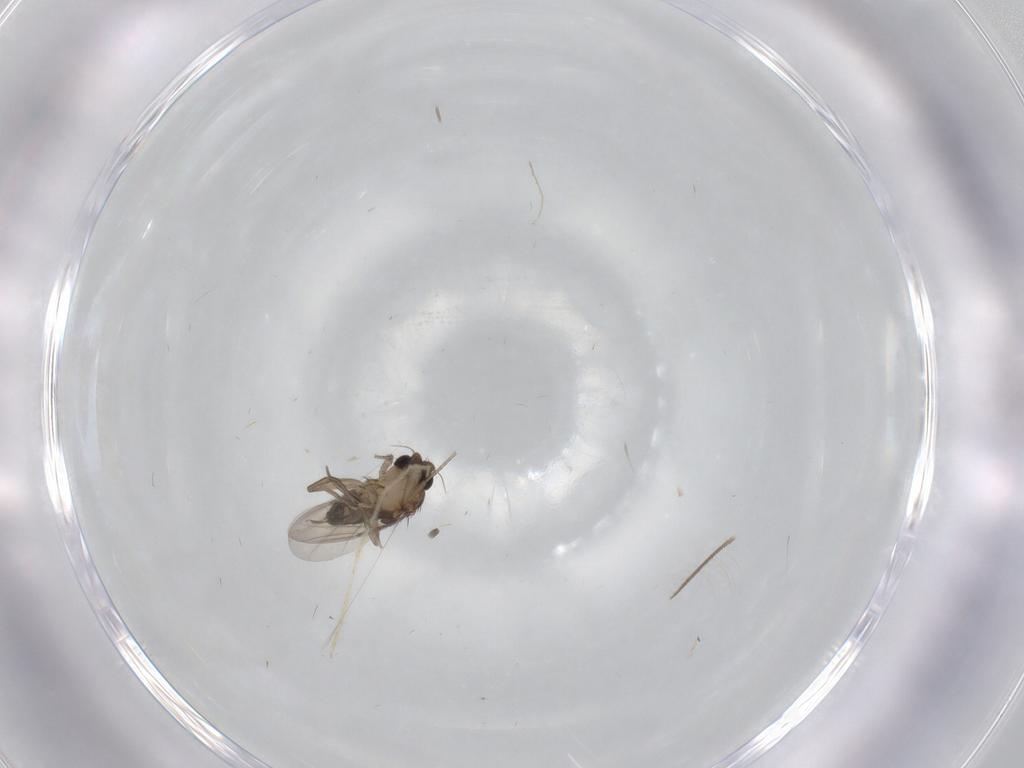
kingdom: Animalia
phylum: Arthropoda
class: Insecta
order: Diptera
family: Phoridae
